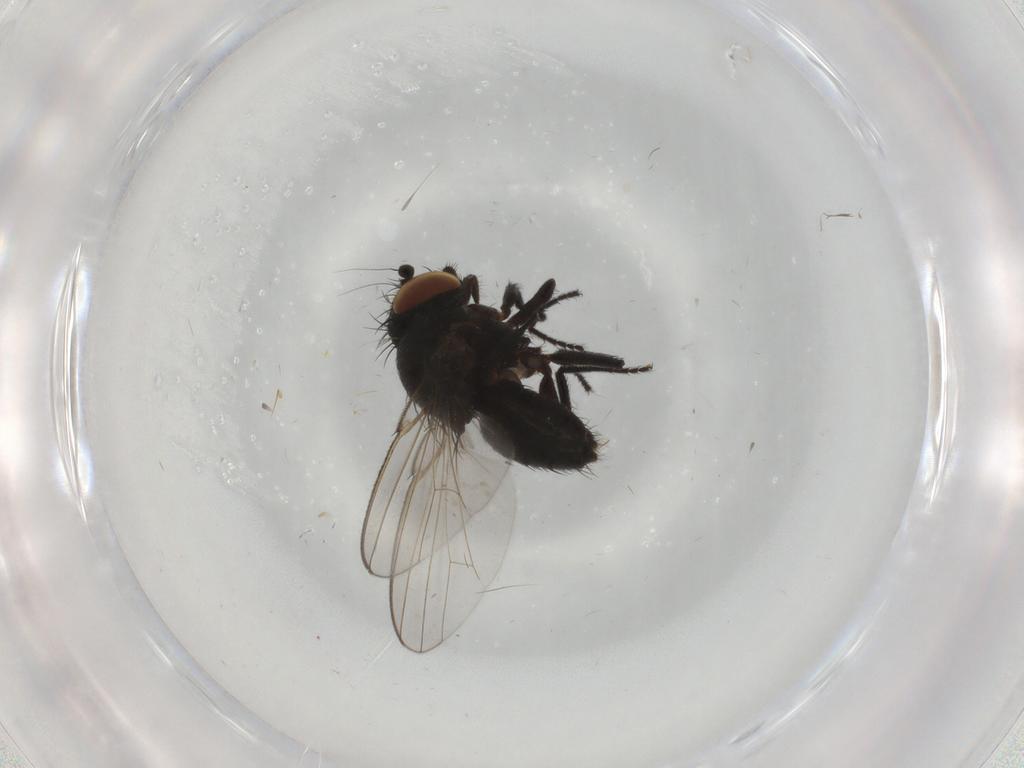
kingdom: Animalia
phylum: Arthropoda
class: Insecta
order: Diptera
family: Milichiidae
